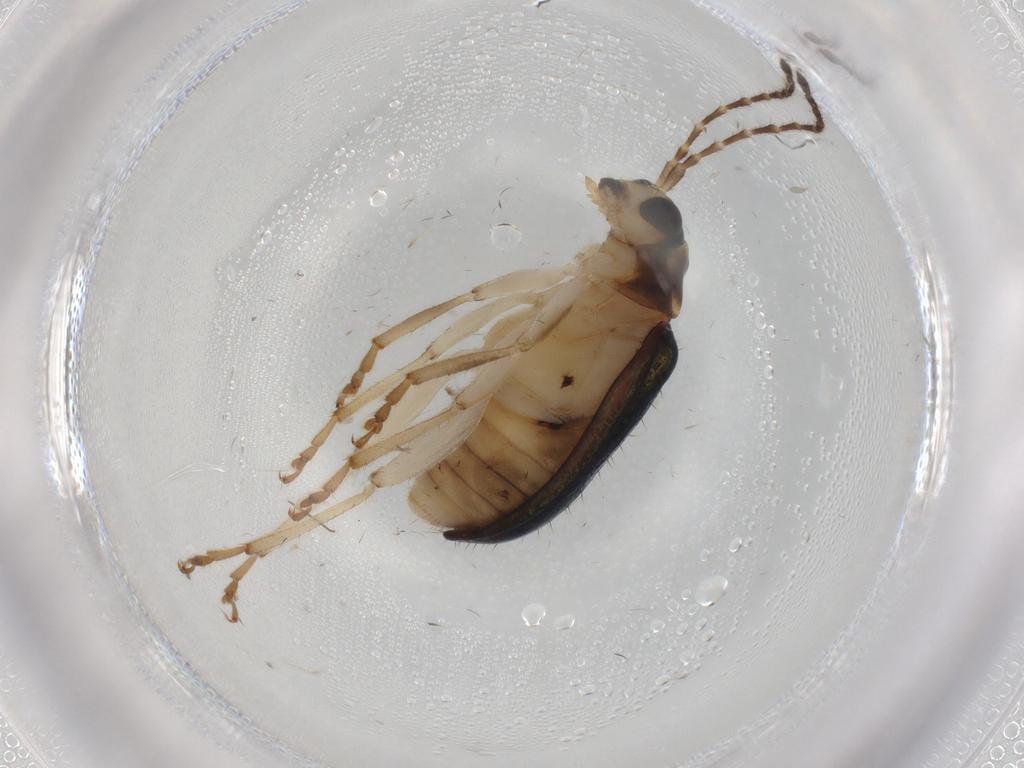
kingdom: Animalia
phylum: Arthropoda
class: Insecta
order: Coleoptera
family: Chrysomelidae
